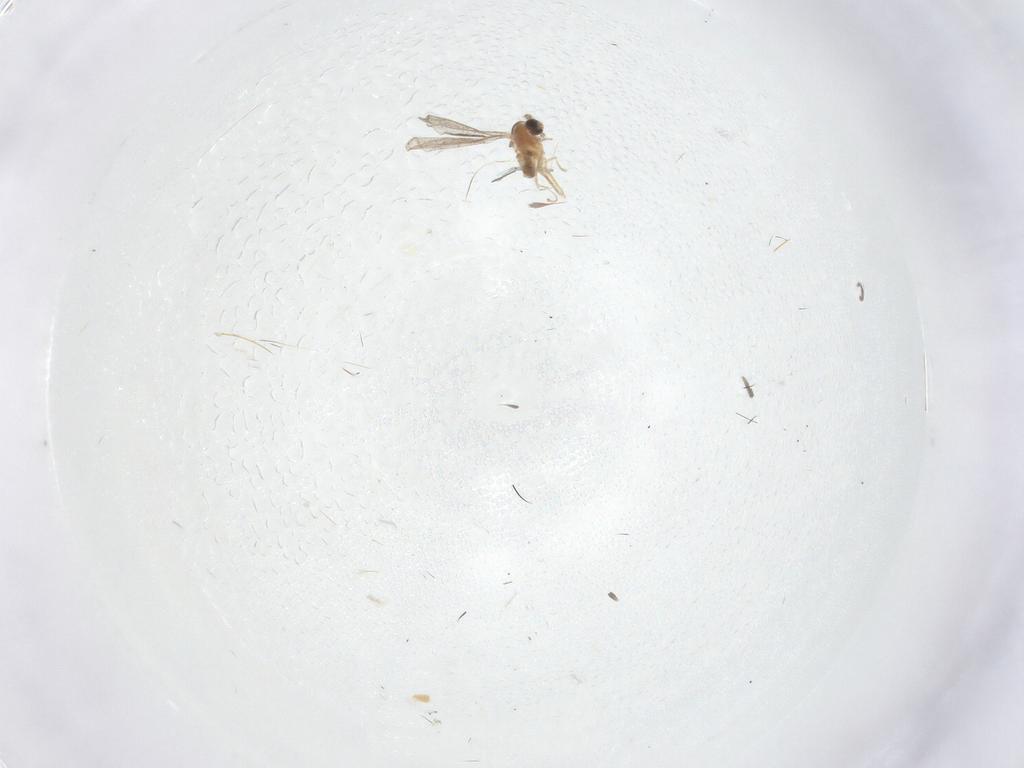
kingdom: Animalia
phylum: Arthropoda
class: Insecta
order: Diptera
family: Cecidomyiidae
